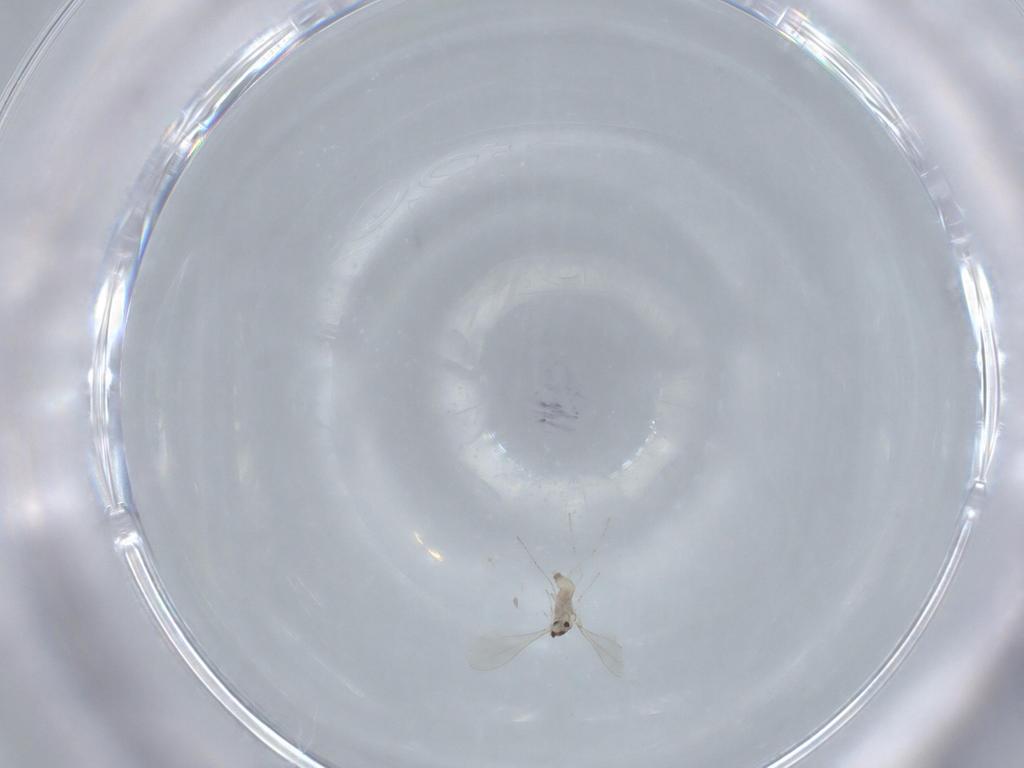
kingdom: Animalia
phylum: Arthropoda
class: Insecta
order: Diptera
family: Cecidomyiidae
